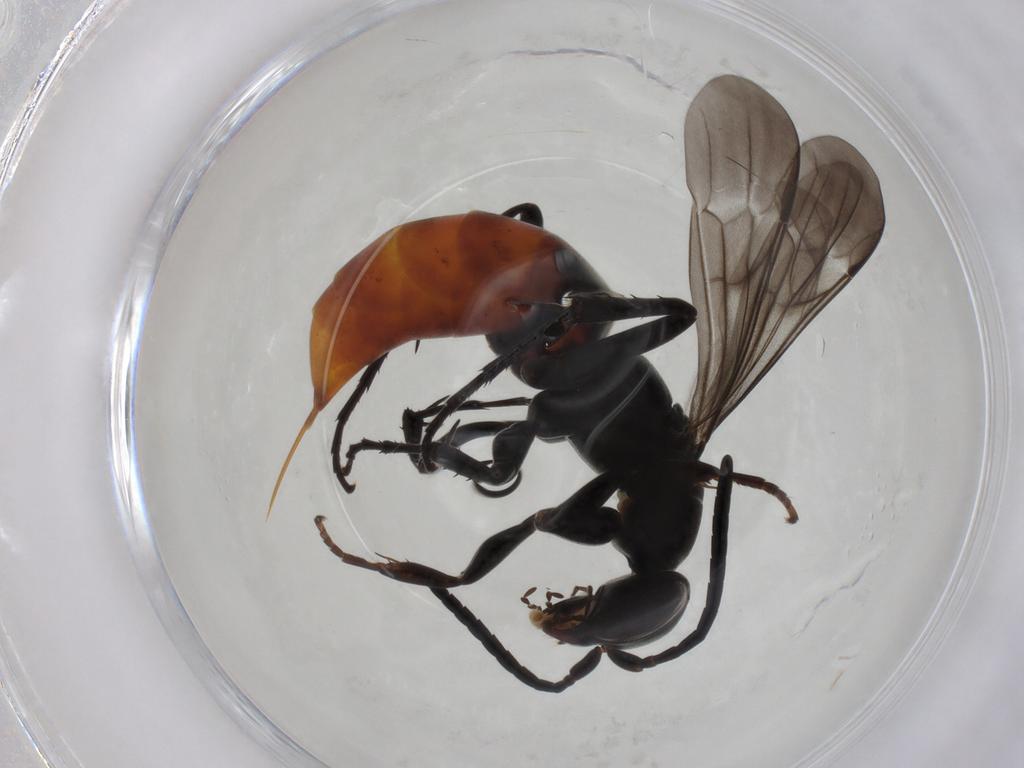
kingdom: Animalia
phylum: Arthropoda
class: Insecta
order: Hymenoptera
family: Pompilidae
